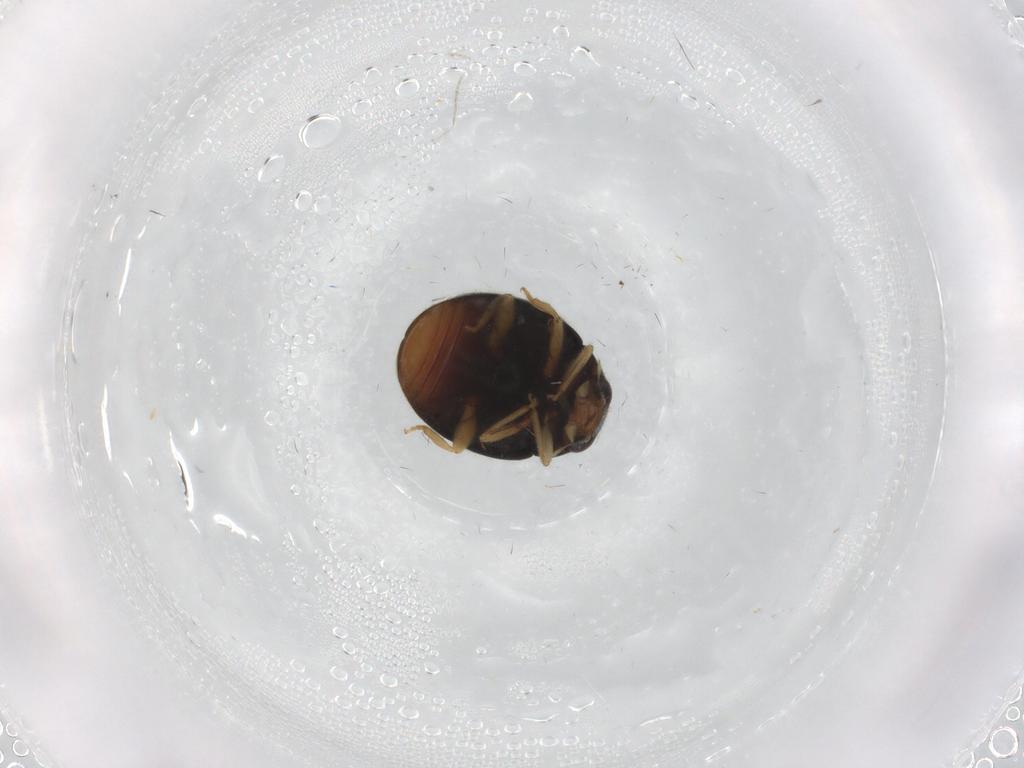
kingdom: Animalia
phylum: Arthropoda
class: Insecta
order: Coleoptera
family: Coccinellidae
